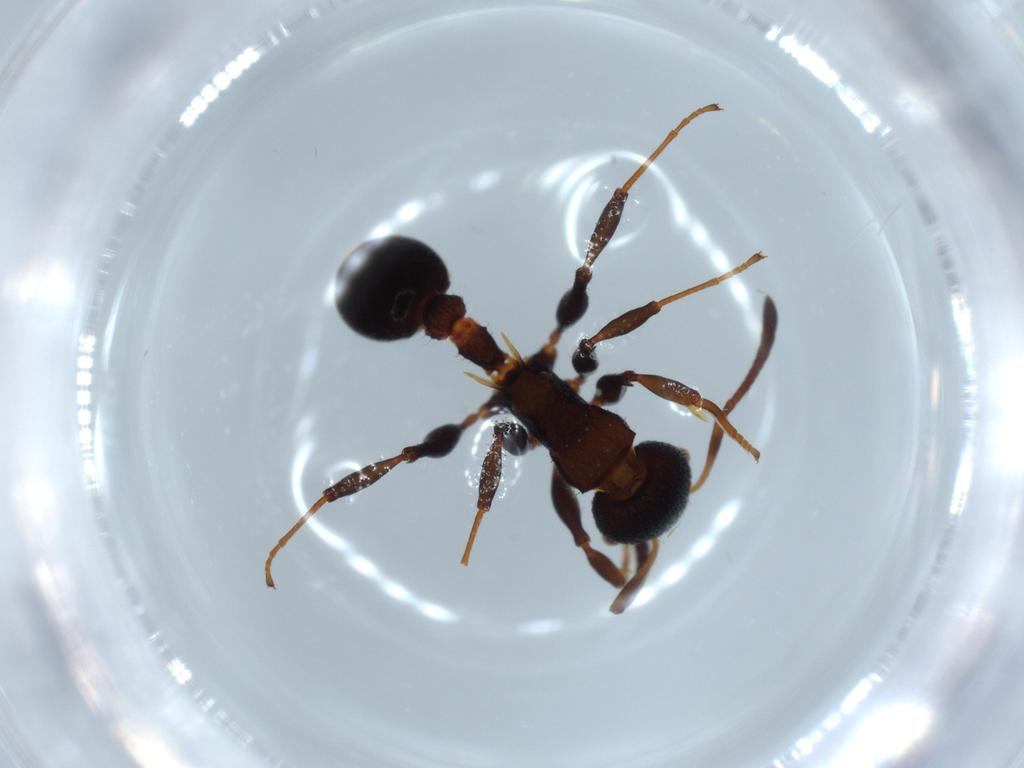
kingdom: Animalia
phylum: Arthropoda
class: Insecta
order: Hymenoptera
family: Formicidae
